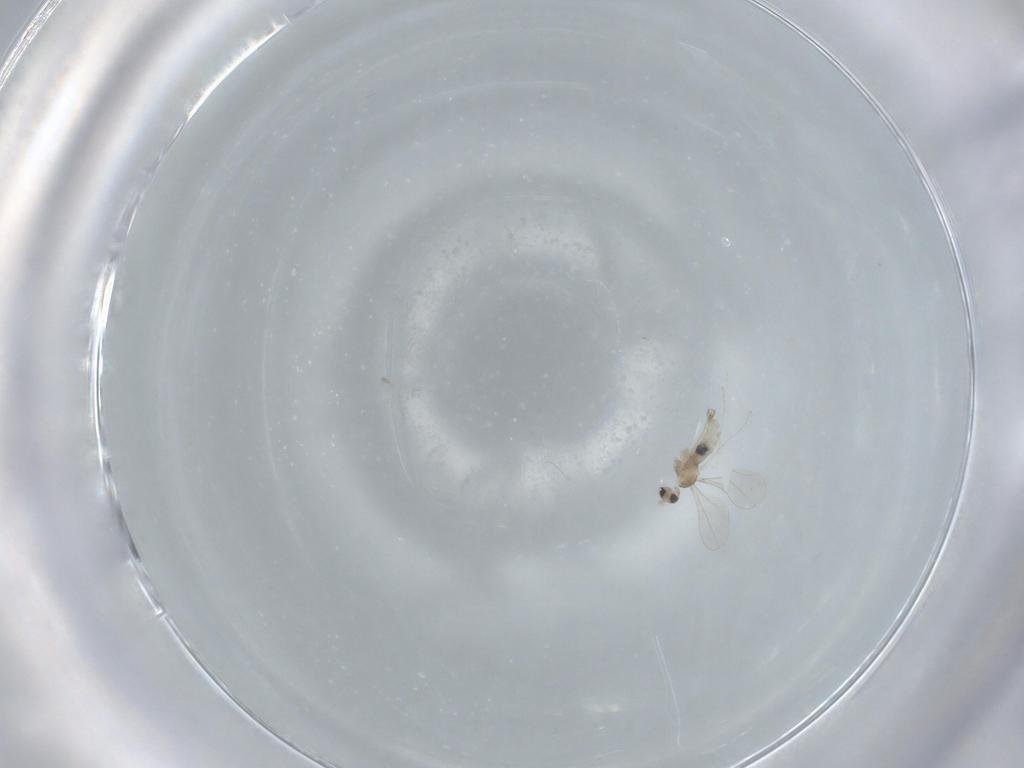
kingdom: Animalia
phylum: Arthropoda
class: Insecta
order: Diptera
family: Cecidomyiidae
